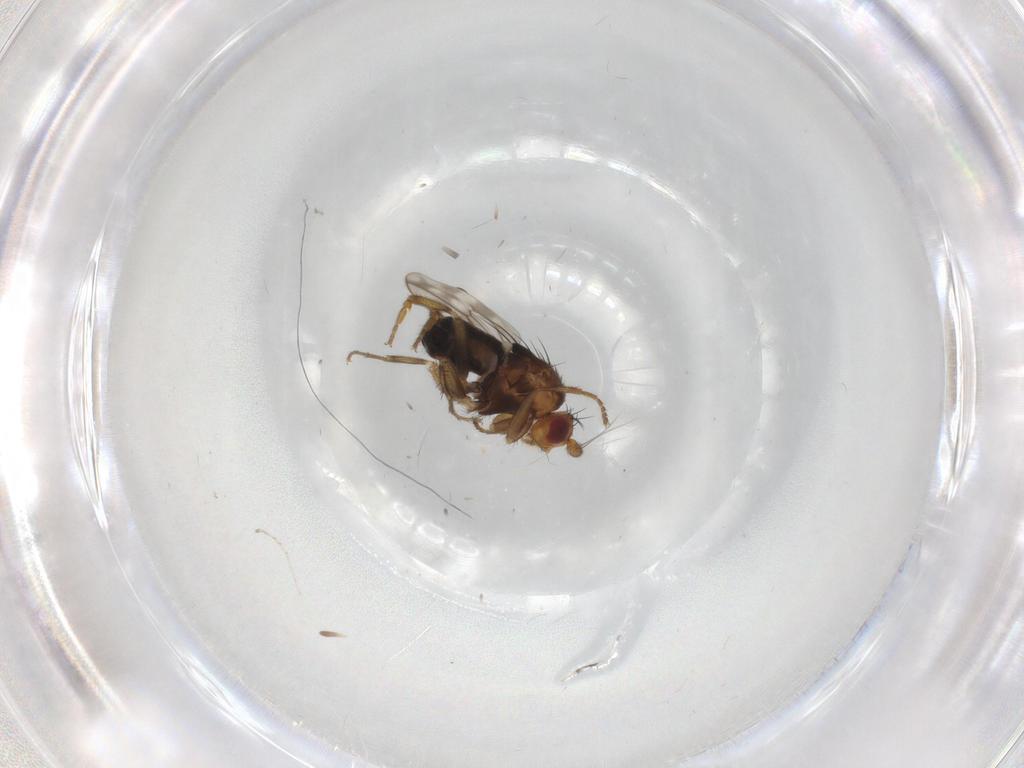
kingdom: Animalia
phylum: Arthropoda
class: Insecta
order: Diptera
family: Sphaeroceridae
